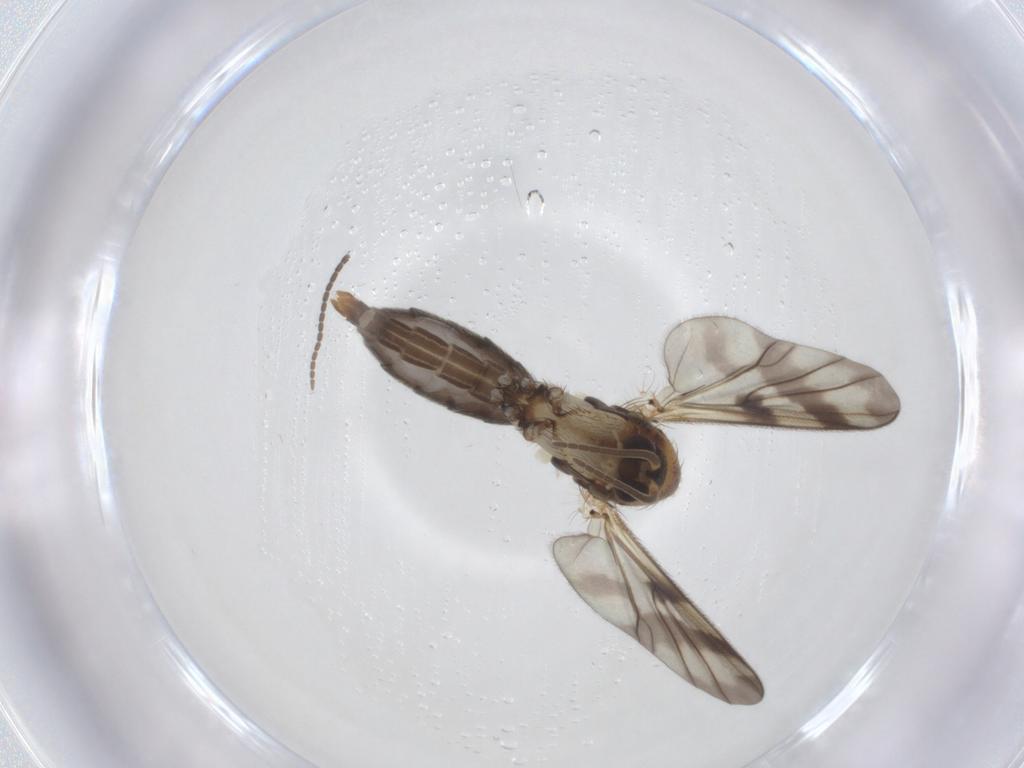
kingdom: Animalia
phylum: Arthropoda
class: Insecta
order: Diptera
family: Mycetophilidae
